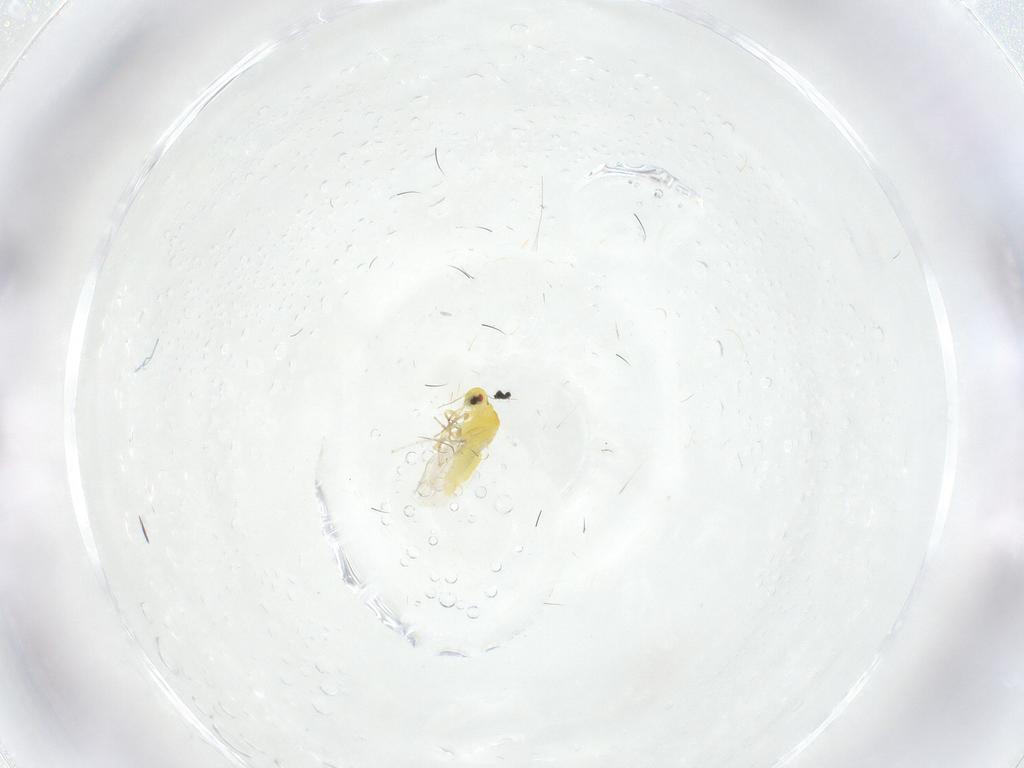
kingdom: Animalia
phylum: Arthropoda
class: Insecta
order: Hemiptera
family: Aleyrodidae
